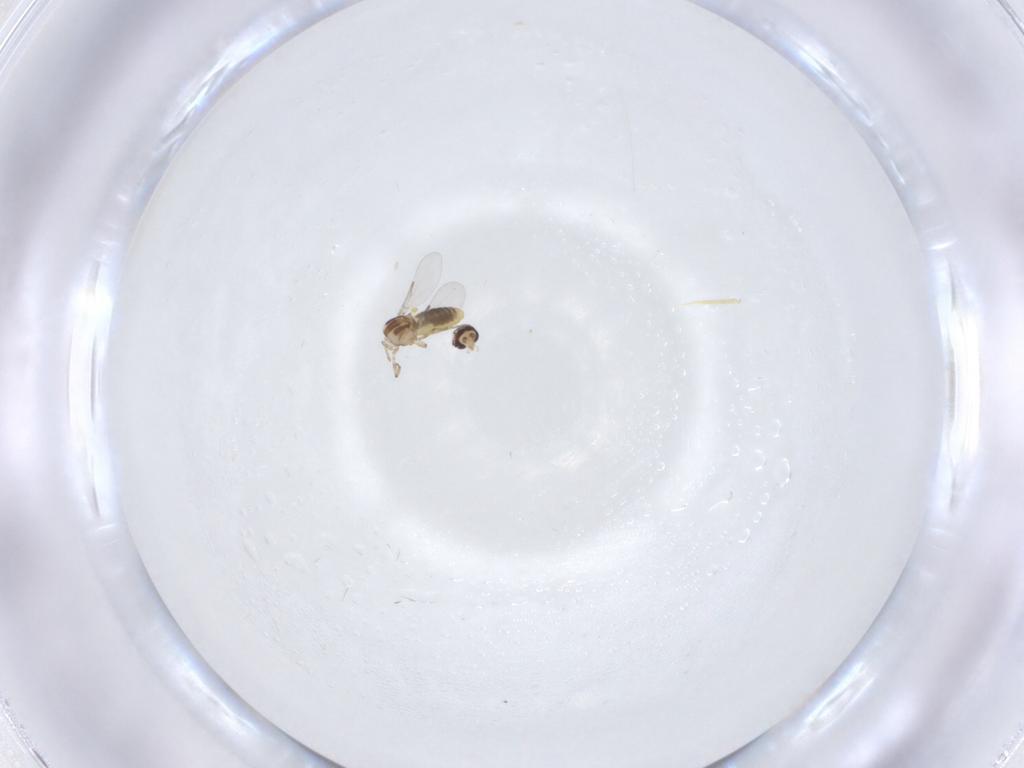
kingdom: Animalia
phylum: Arthropoda
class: Insecta
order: Diptera
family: Ceratopogonidae
